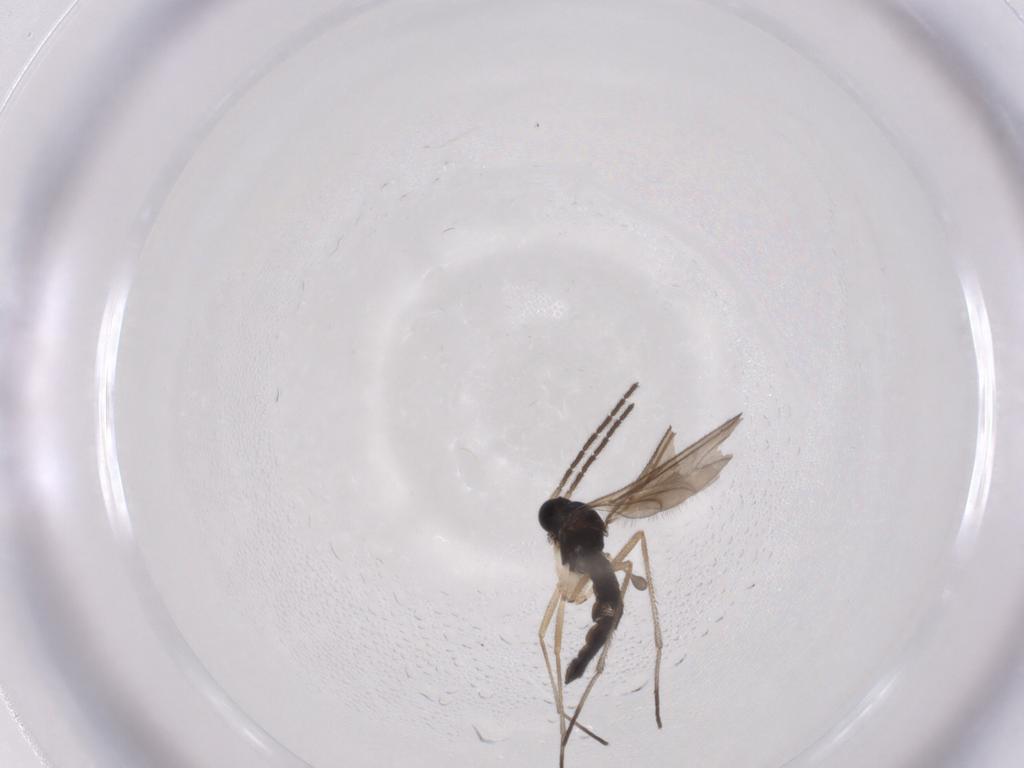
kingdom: Animalia
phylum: Arthropoda
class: Insecta
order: Diptera
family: Sciaridae
